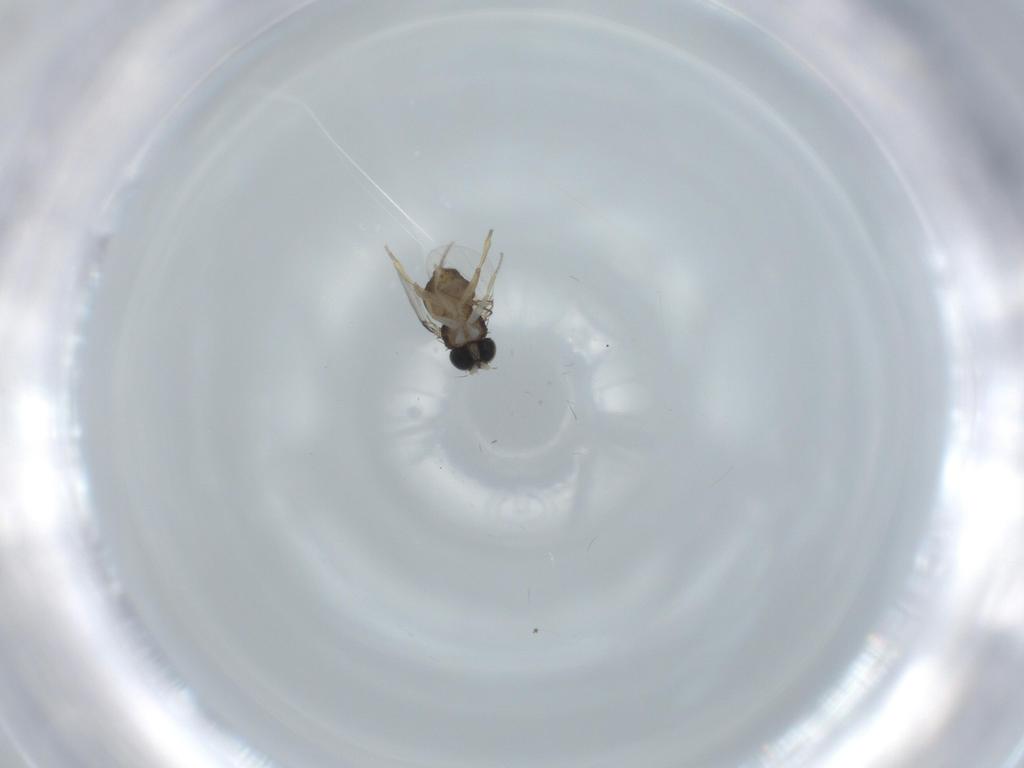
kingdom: Animalia
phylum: Arthropoda
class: Insecta
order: Diptera
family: Phoridae
